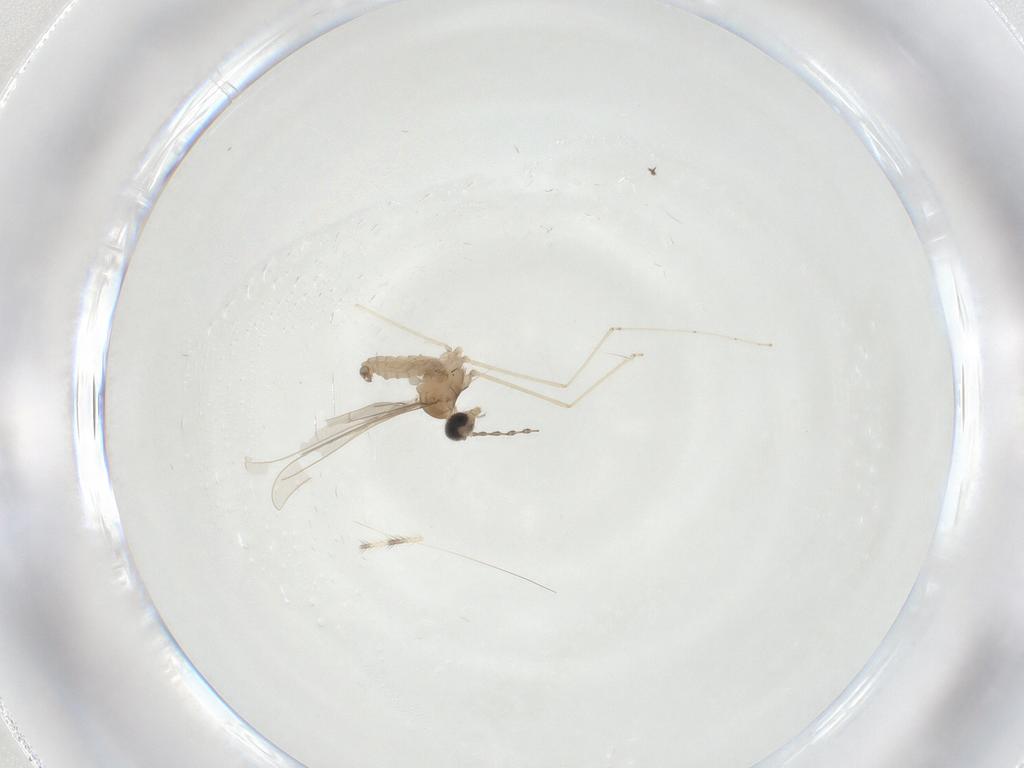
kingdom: Animalia
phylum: Arthropoda
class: Insecta
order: Diptera
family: Cecidomyiidae
